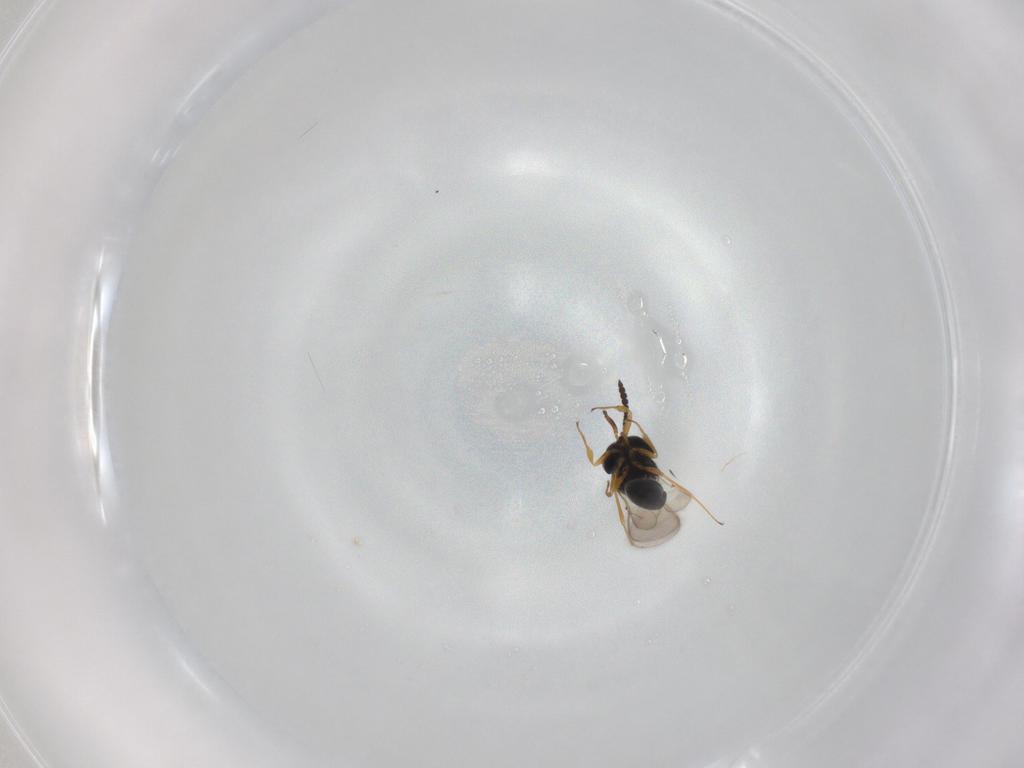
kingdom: Animalia
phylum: Arthropoda
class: Insecta
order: Hymenoptera
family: Scelionidae
